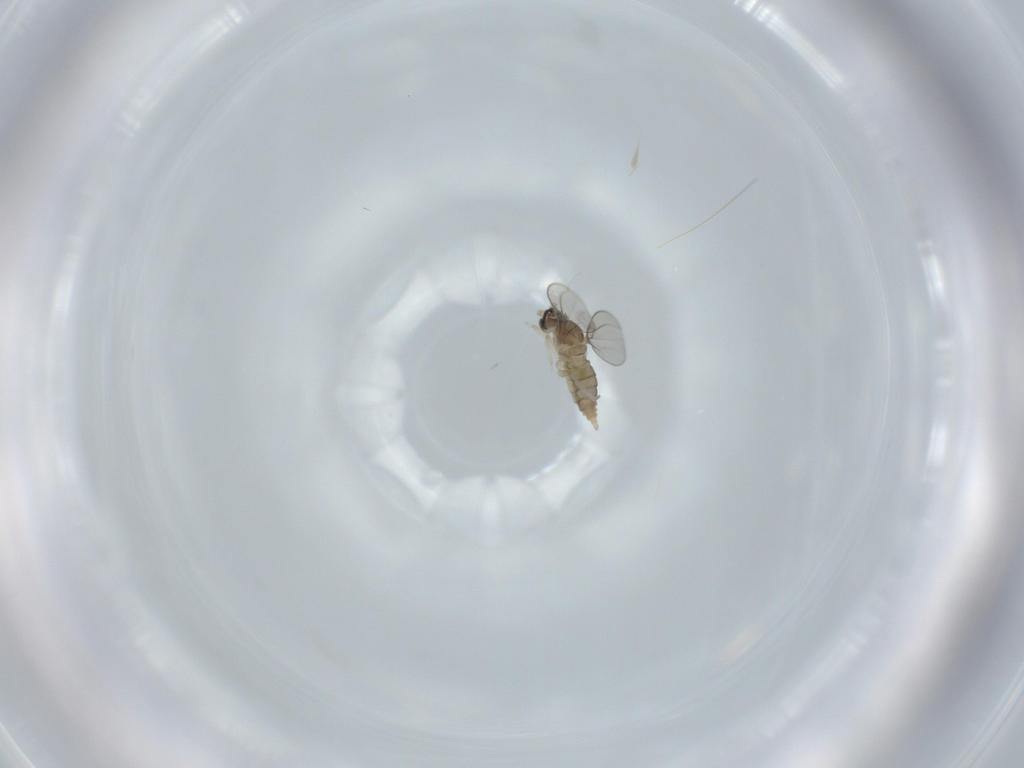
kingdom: Animalia
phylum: Arthropoda
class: Insecta
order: Diptera
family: Cecidomyiidae
